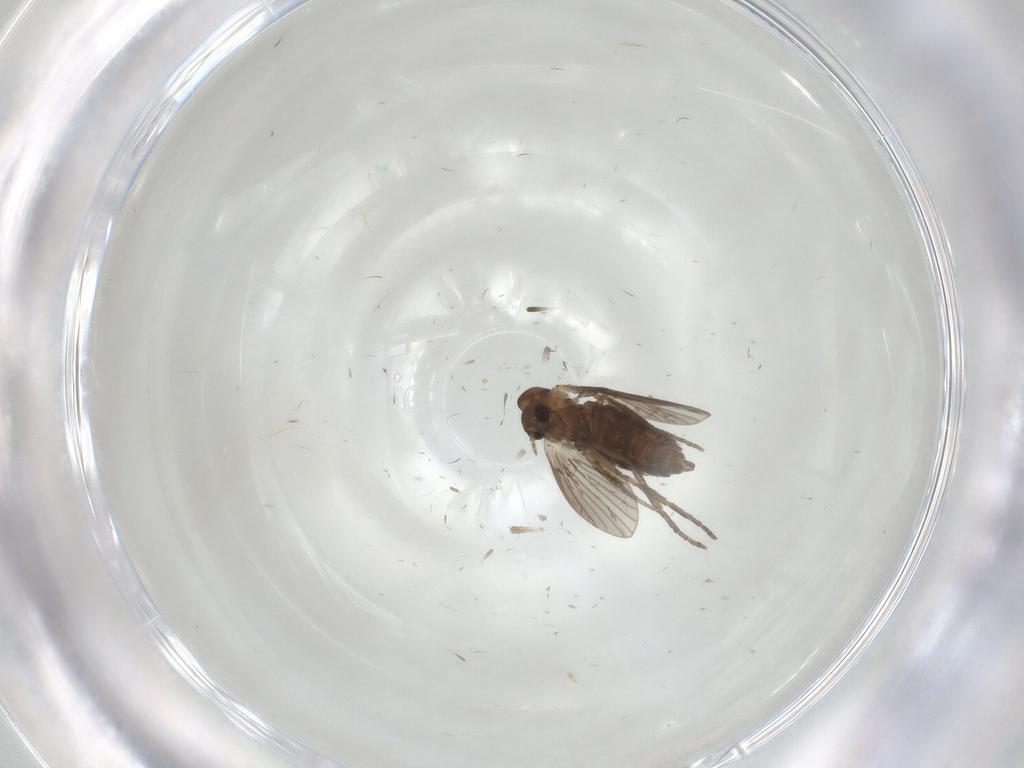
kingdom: Animalia
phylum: Arthropoda
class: Insecta
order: Diptera
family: Cecidomyiidae
